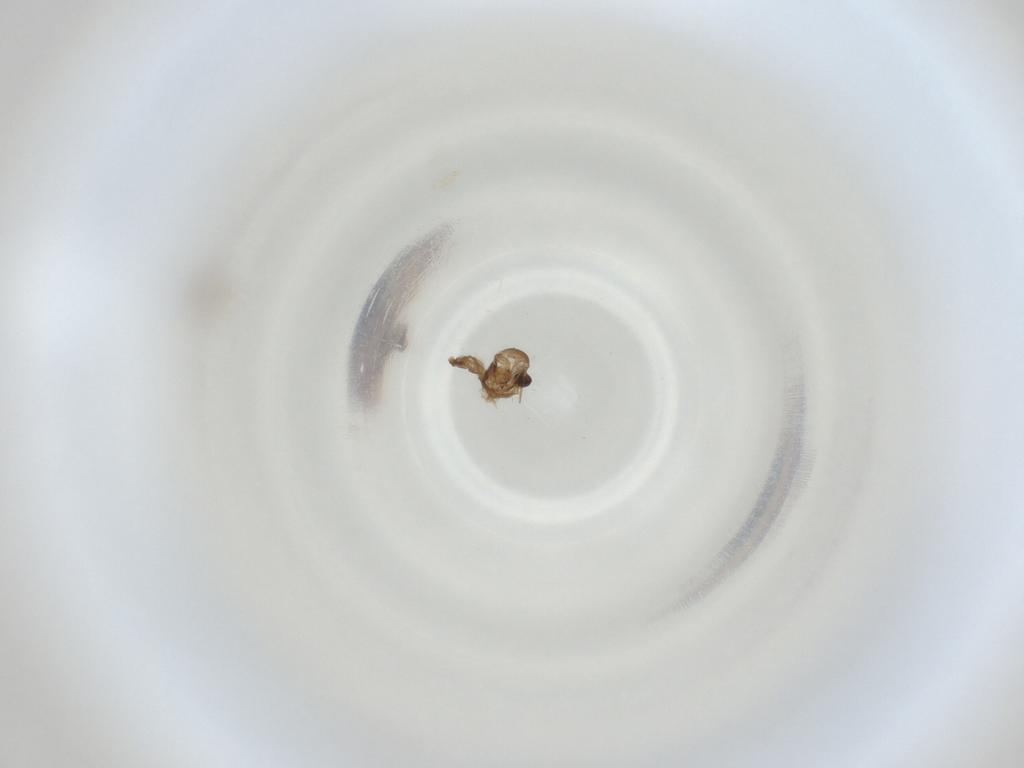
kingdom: Animalia
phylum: Arthropoda
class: Insecta
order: Diptera
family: Cecidomyiidae
